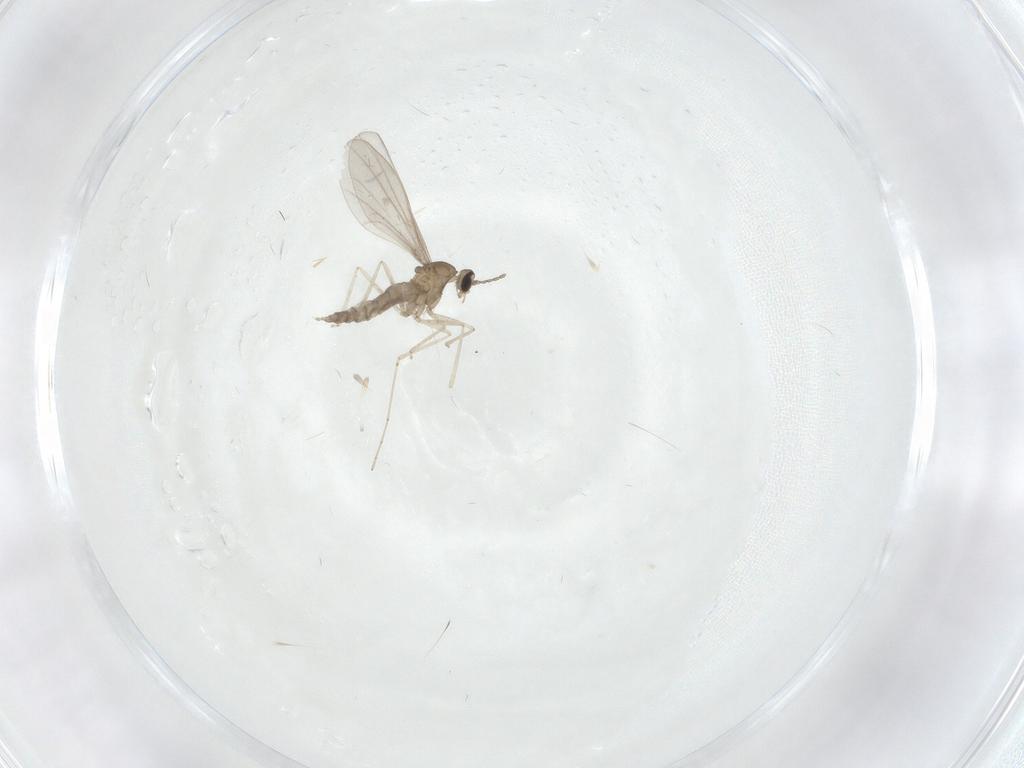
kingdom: Animalia
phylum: Arthropoda
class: Insecta
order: Diptera
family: Cecidomyiidae
